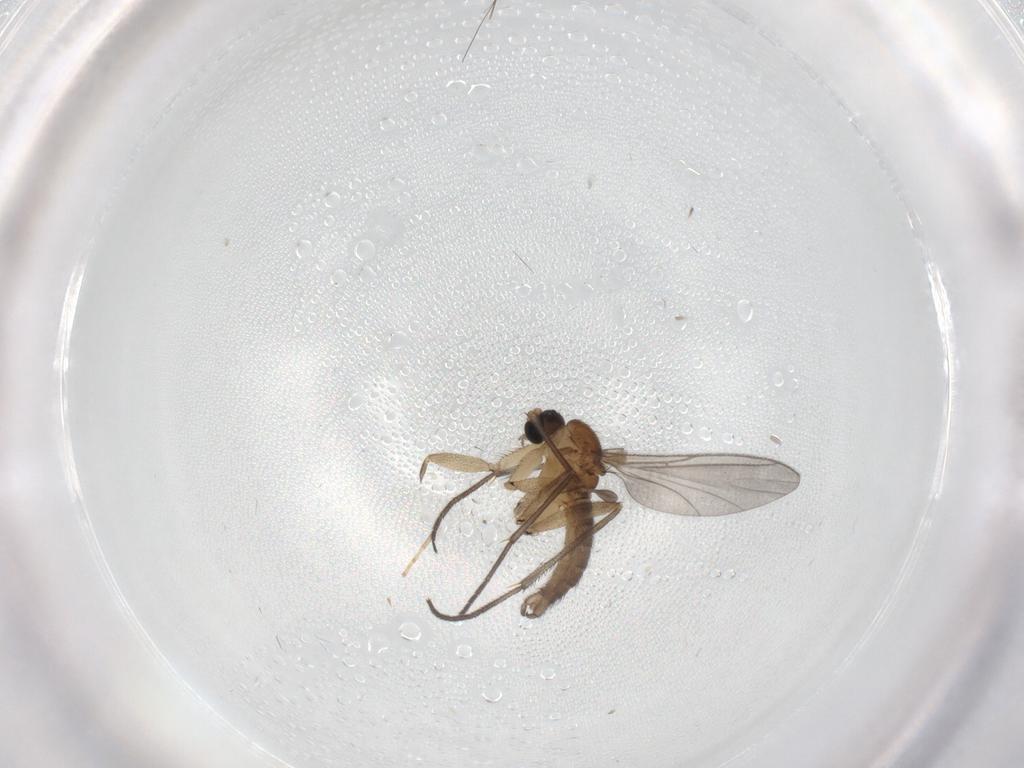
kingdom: Animalia
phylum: Arthropoda
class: Insecta
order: Diptera
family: Sciaridae
